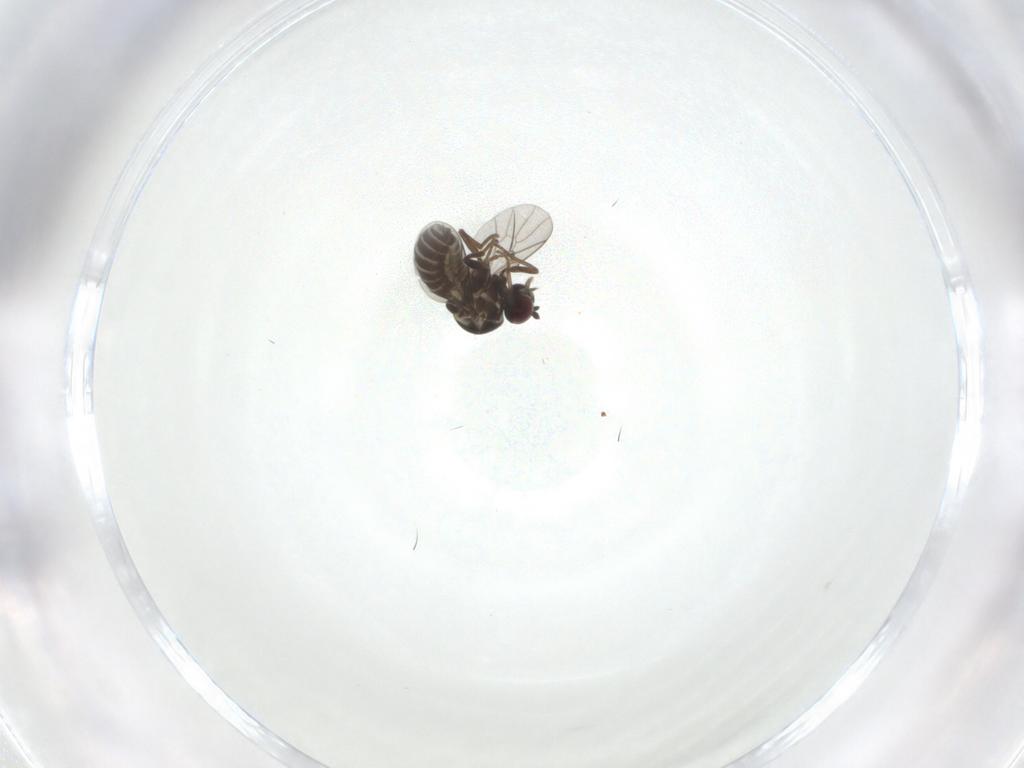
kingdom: Animalia
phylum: Arthropoda
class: Insecta
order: Diptera
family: Bombyliidae
